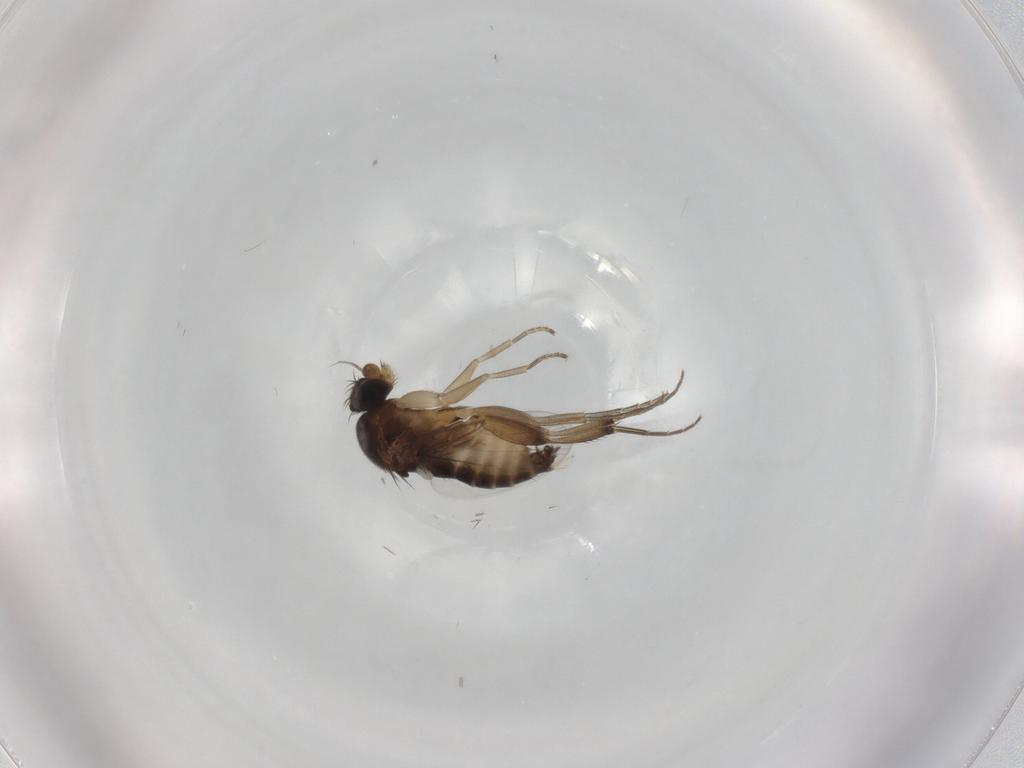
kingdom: Animalia
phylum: Arthropoda
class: Insecta
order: Diptera
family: Phoridae
